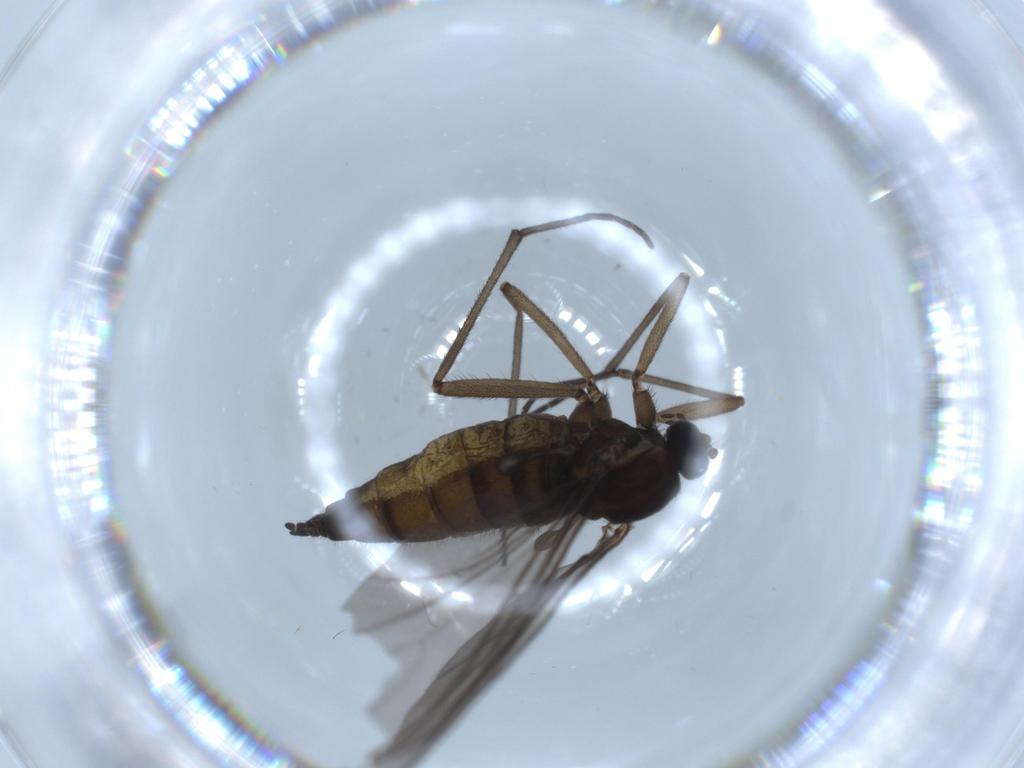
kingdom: Animalia
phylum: Arthropoda
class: Insecta
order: Diptera
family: Sciaridae
